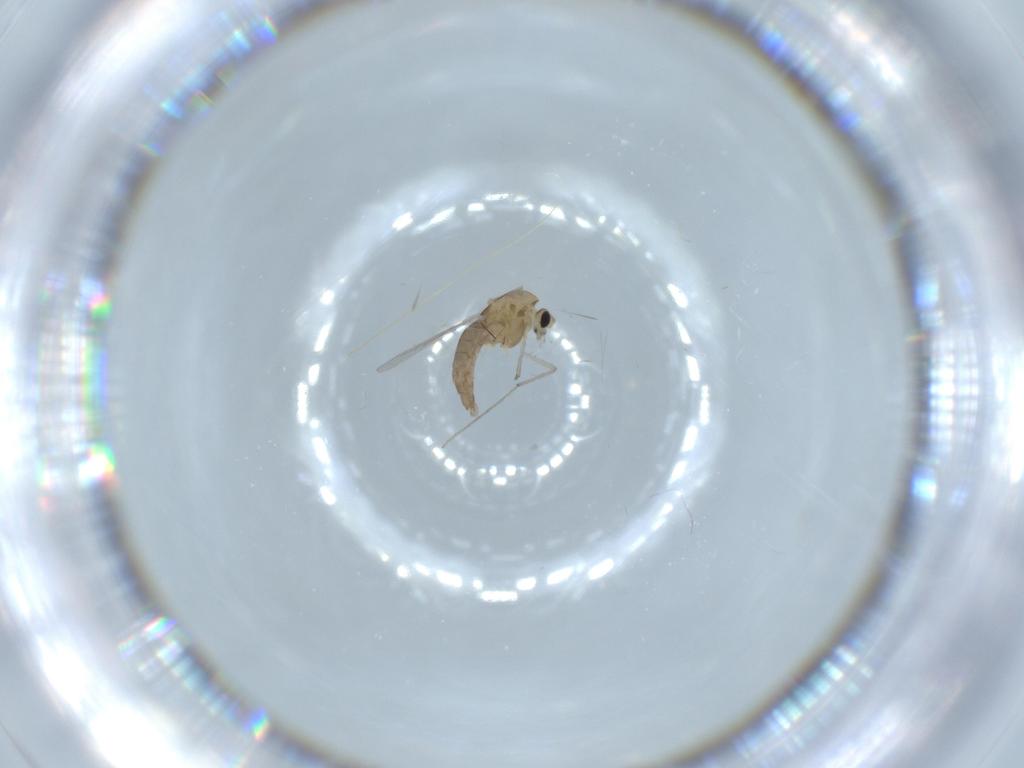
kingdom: Animalia
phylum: Arthropoda
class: Insecta
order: Diptera
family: Chironomidae
